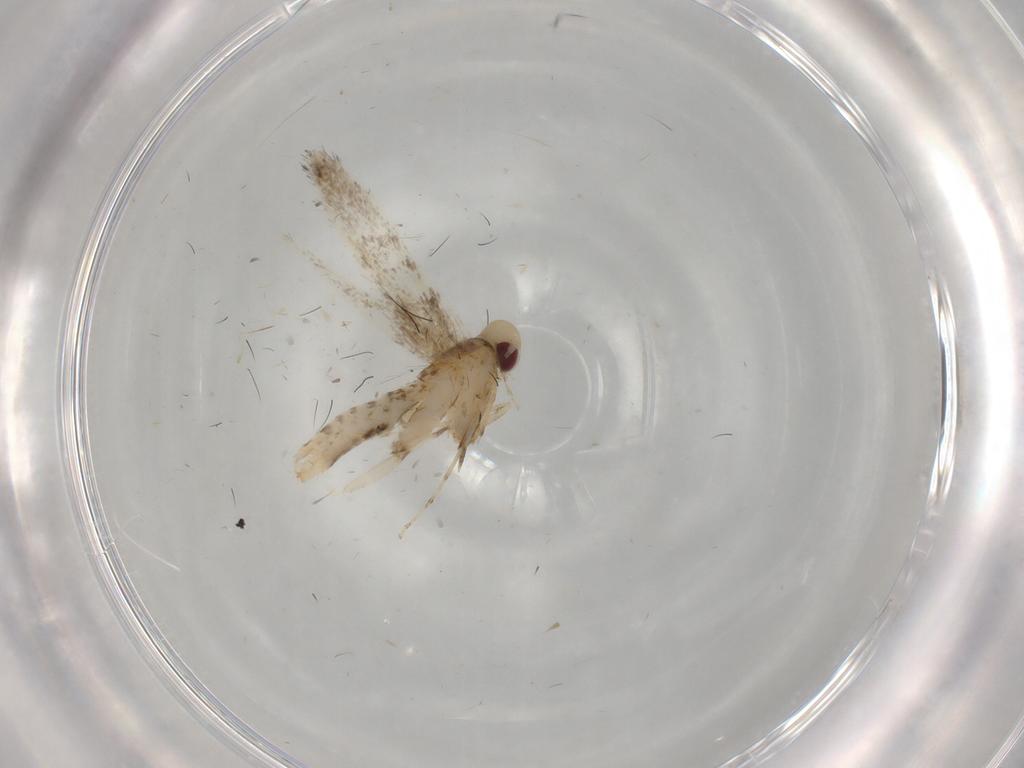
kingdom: Animalia
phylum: Arthropoda
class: Insecta
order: Lepidoptera
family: Gracillariidae
